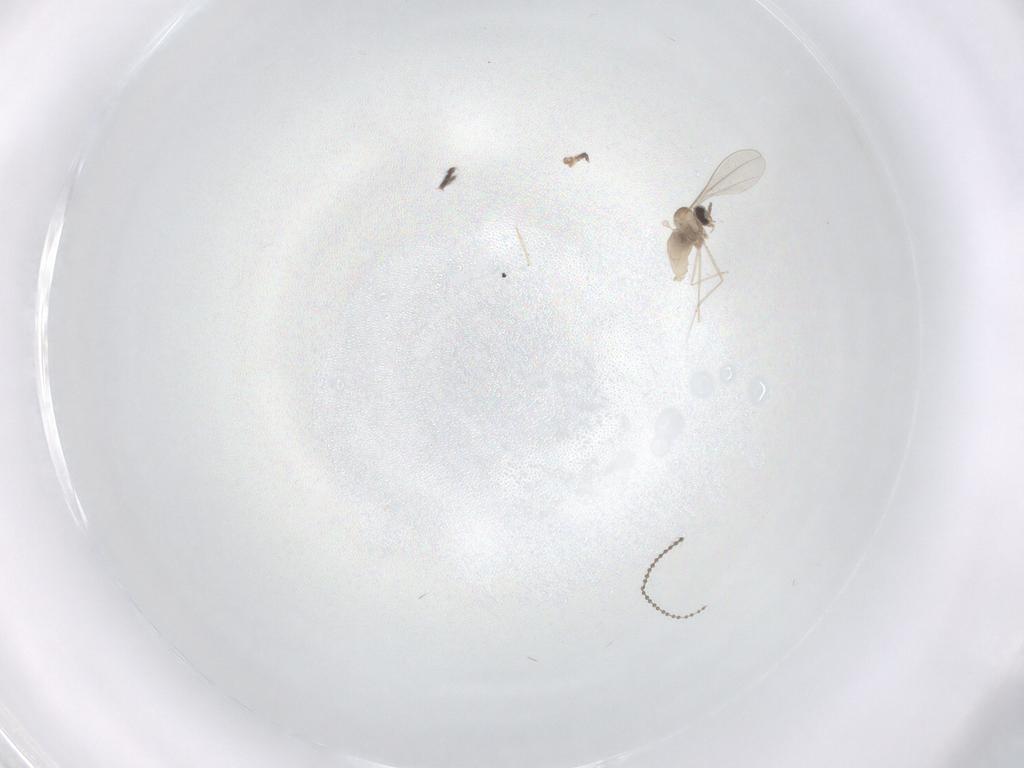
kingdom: Animalia
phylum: Arthropoda
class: Insecta
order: Diptera
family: Cecidomyiidae
